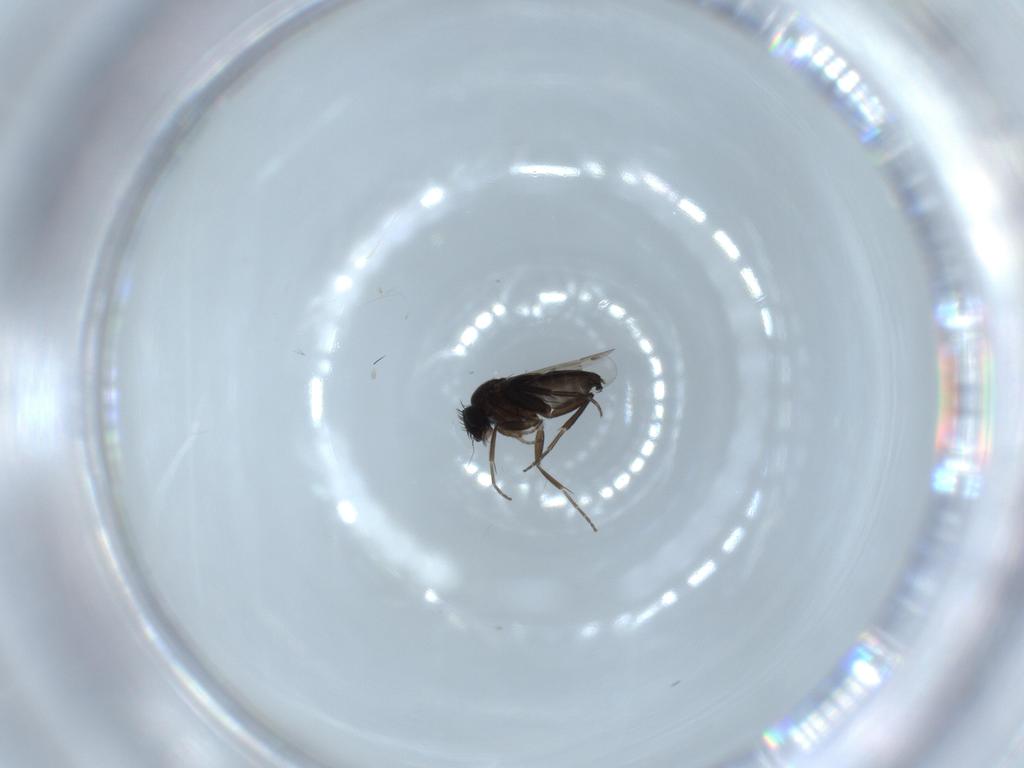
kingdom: Animalia
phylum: Arthropoda
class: Insecta
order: Diptera
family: Phoridae
